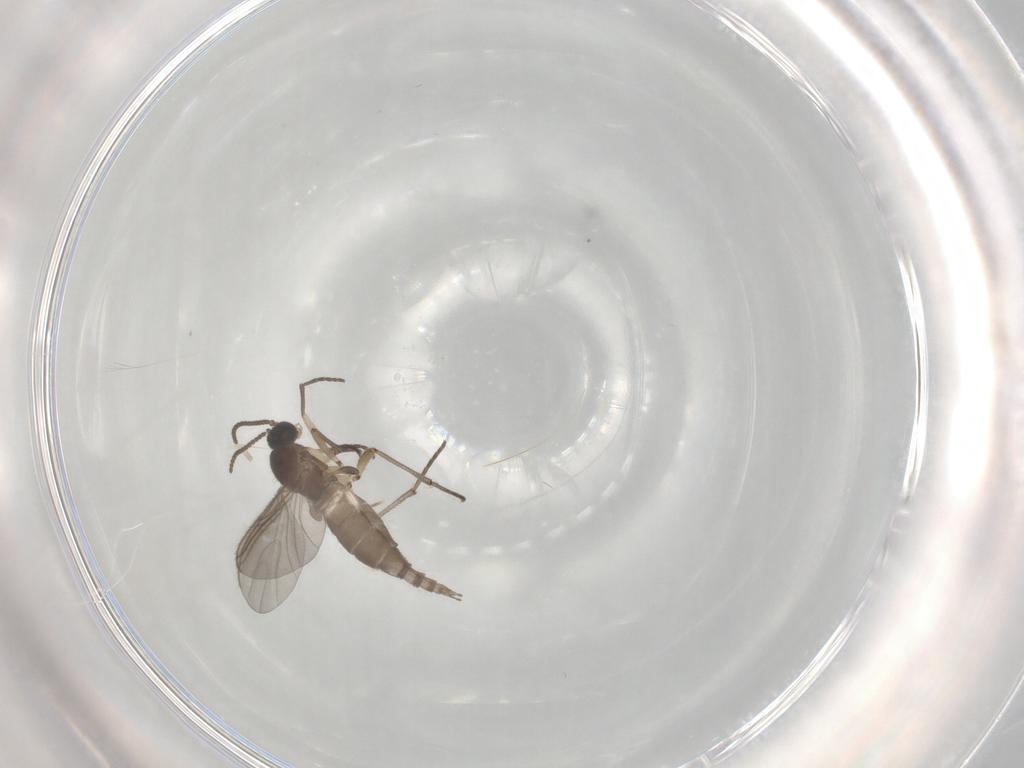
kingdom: Animalia
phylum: Arthropoda
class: Insecta
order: Diptera
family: Sciaridae
